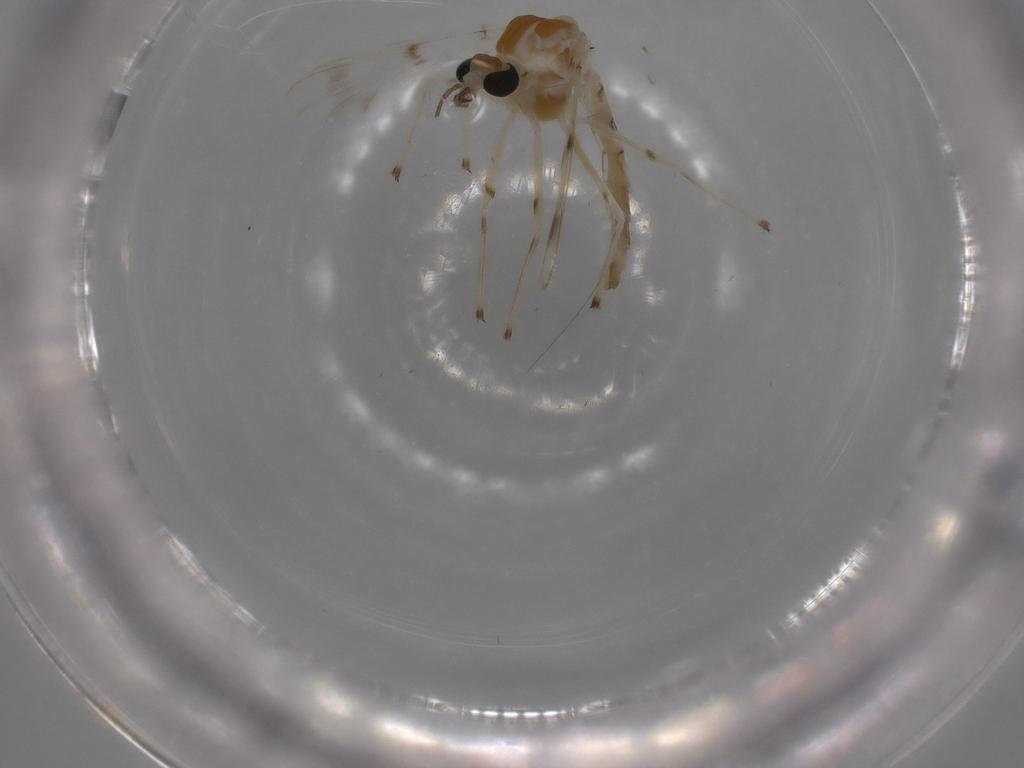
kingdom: Animalia
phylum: Arthropoda
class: Insecta
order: Diptera
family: Chironomidae
